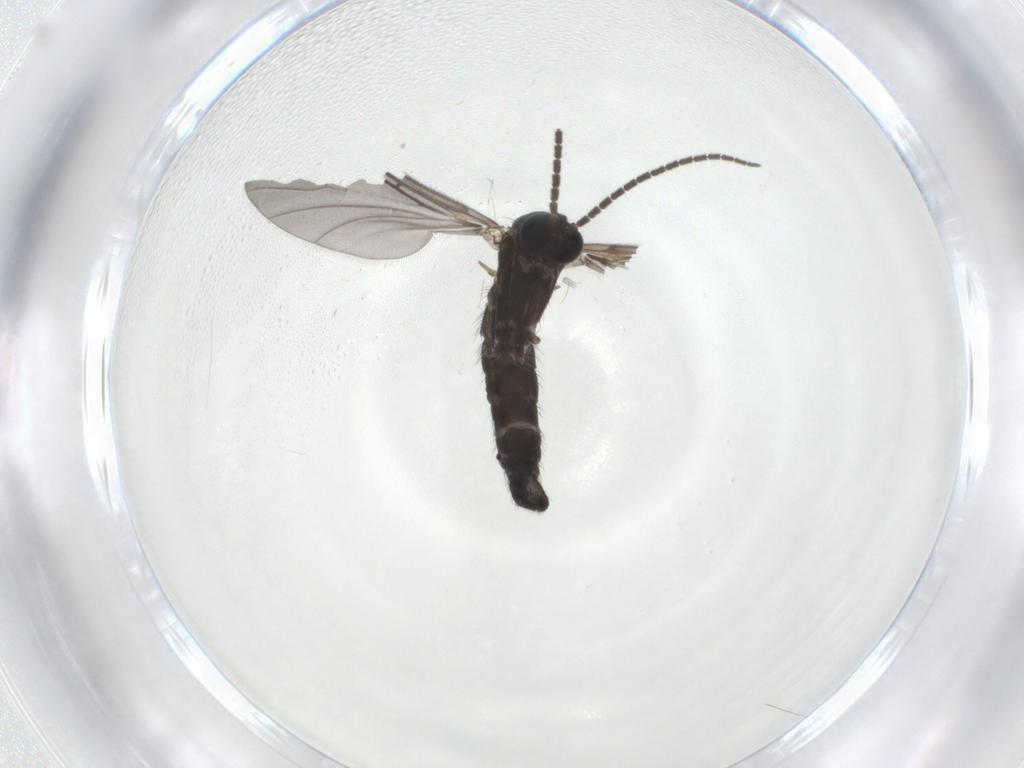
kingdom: Animalia
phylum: Arthropoda
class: Insecta
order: Diptera
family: Sciaridae
